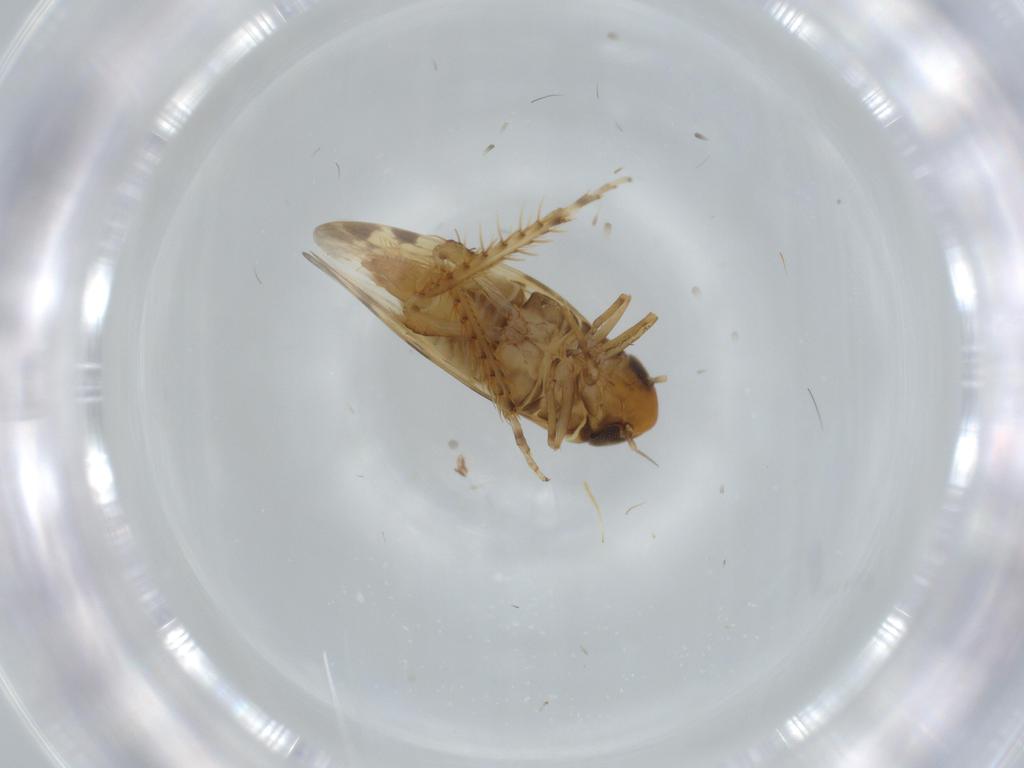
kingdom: Animalia
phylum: Arthropoda
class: Insecta
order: Hemiptera
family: Cicadellidae
